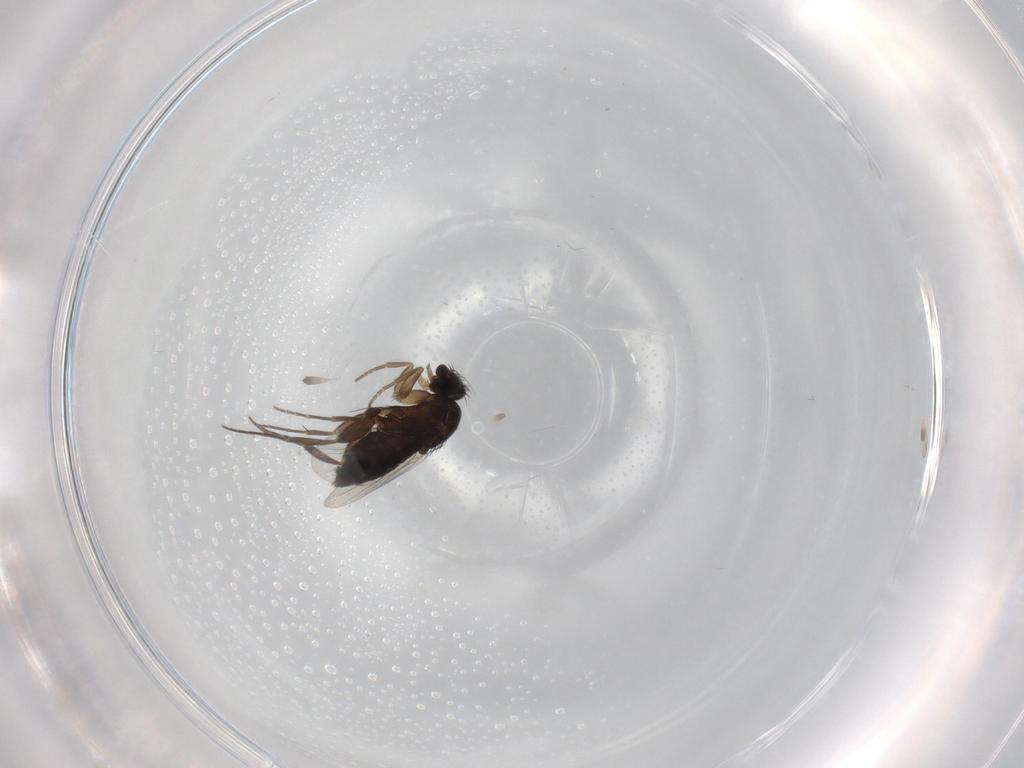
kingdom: Animalia
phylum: Arthropoda
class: Insecta
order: Diptera
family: Phoridae
